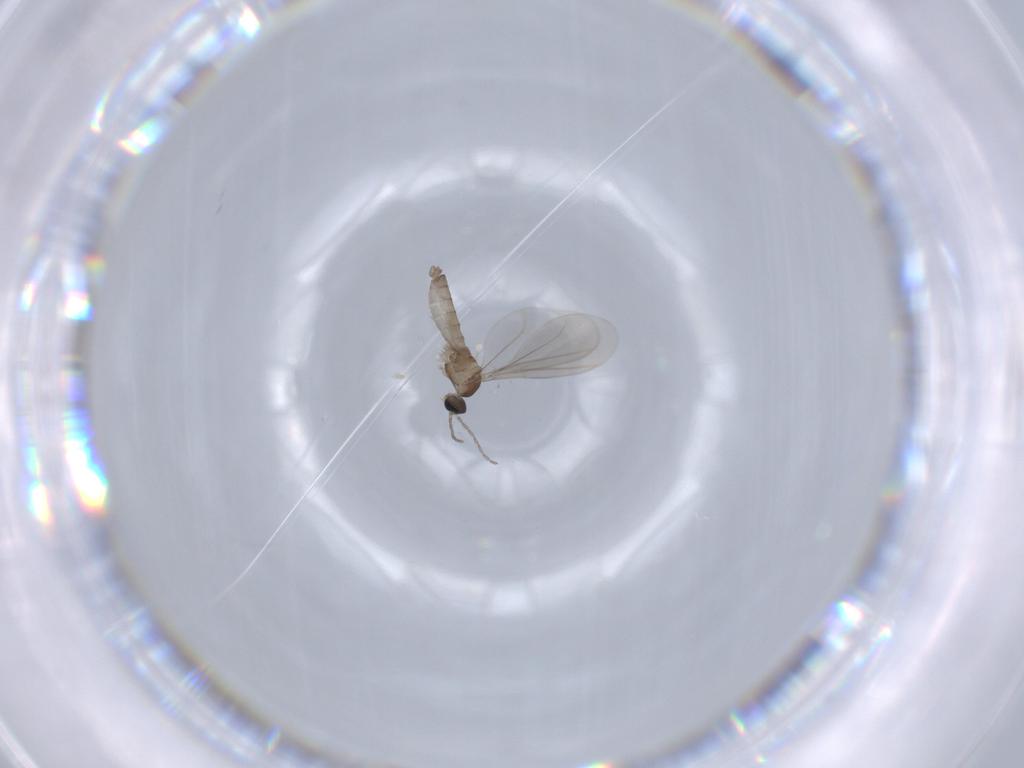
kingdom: Animalia
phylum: Arthropoda
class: Insecta
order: Diptera
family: Cecidomyiidae
